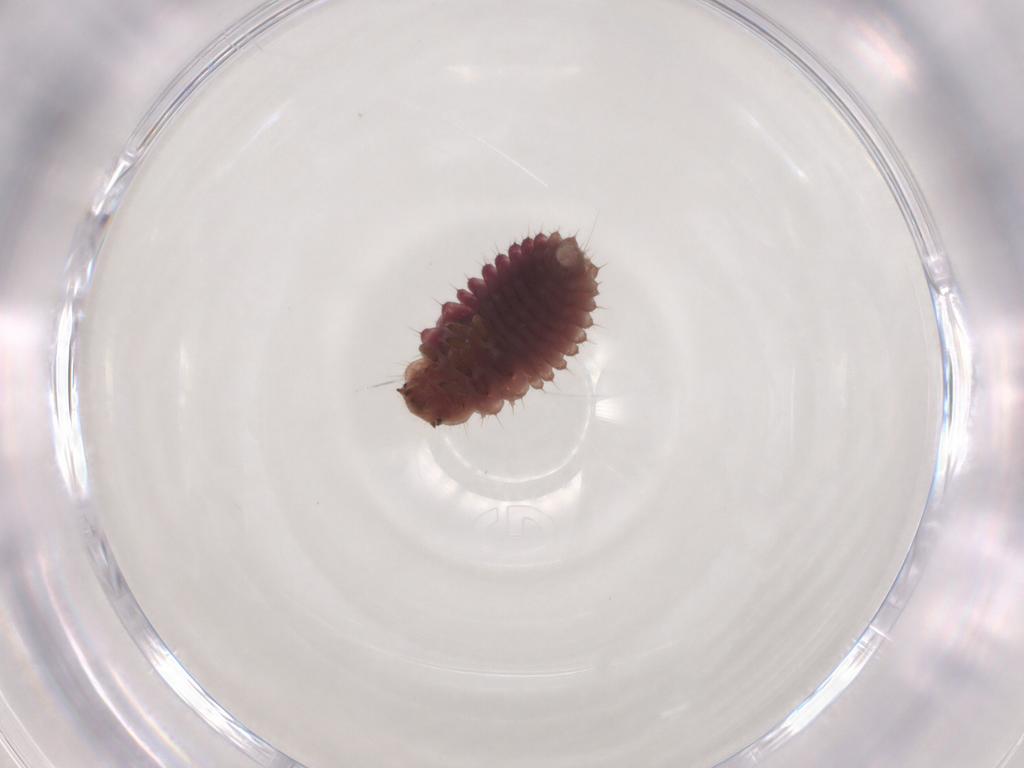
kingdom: Animalia
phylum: Arthropoda
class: Insecta
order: Coleoptera
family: Coccinellidae
